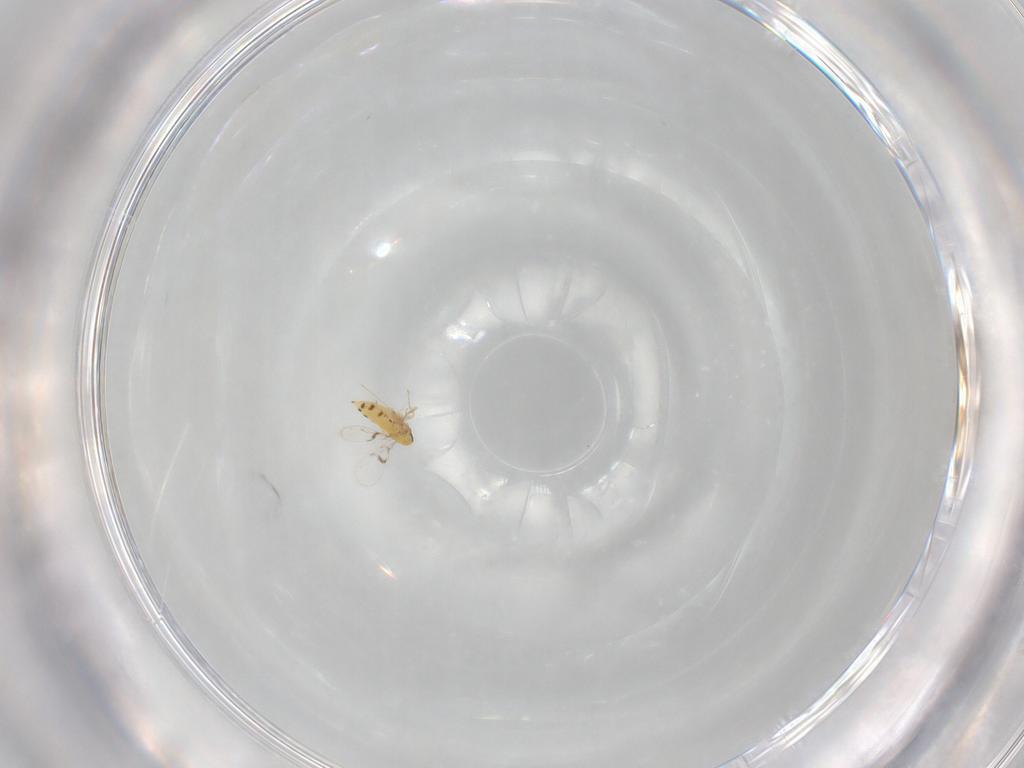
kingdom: Animalia
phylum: Arthropoda
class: Insecta
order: Hymenoptera
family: Trichogrammatidae
